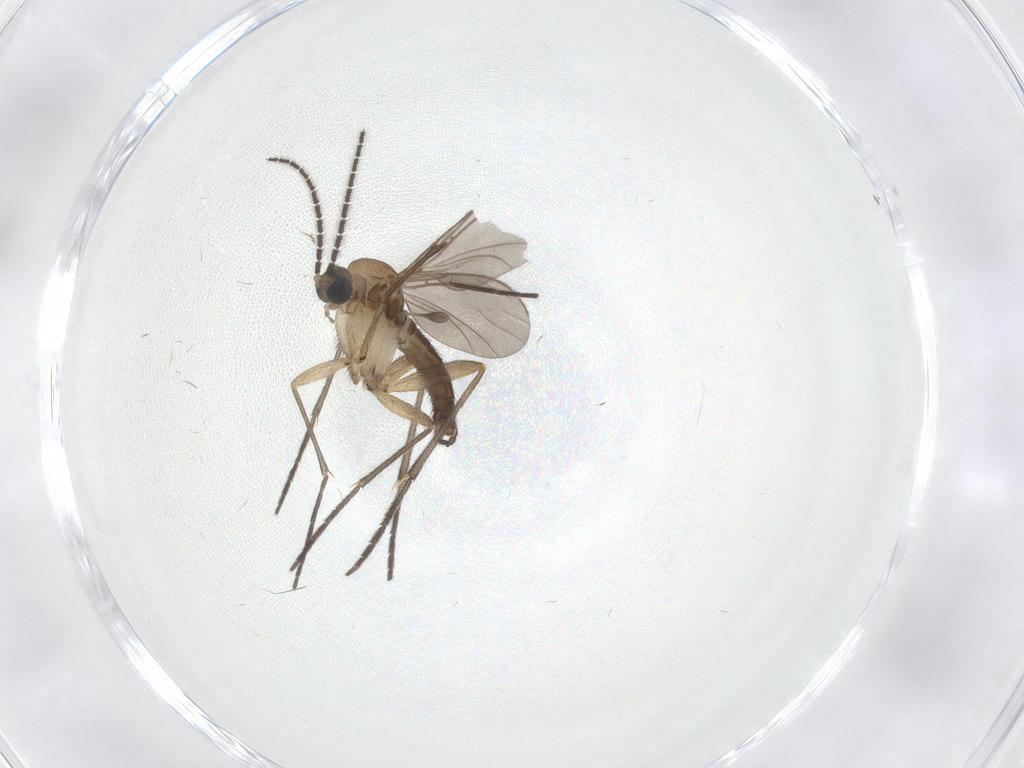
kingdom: Animalia
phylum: Arthropoda
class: Insecta
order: Diptera
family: Sciaridae
